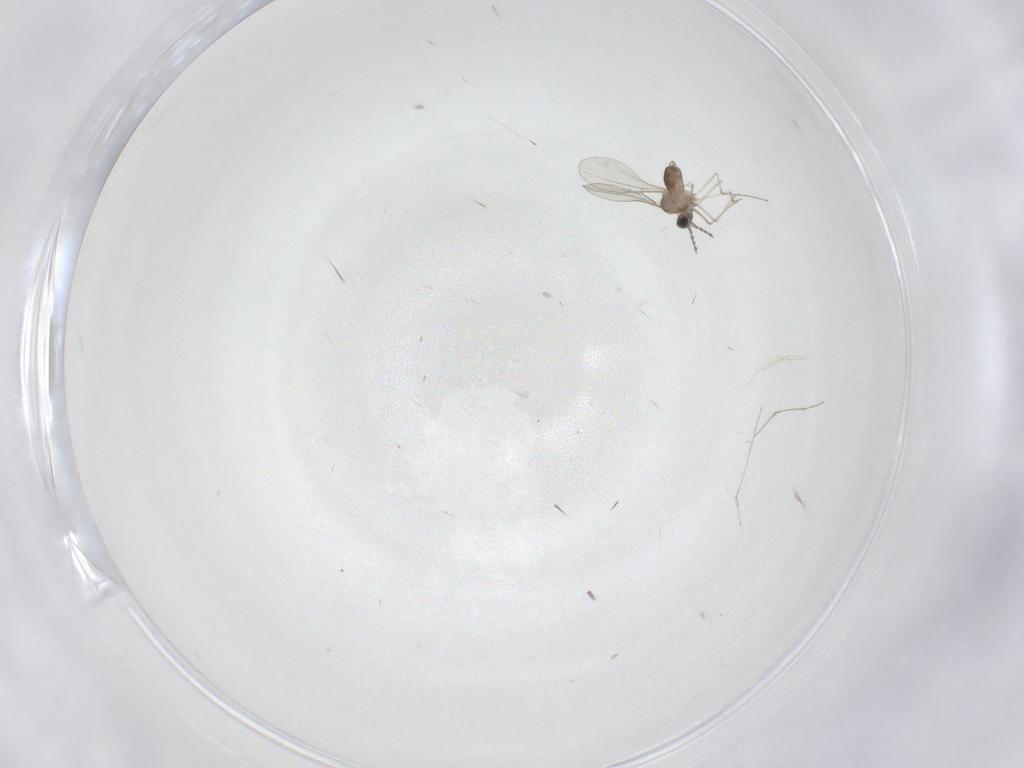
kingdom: Animalia
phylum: Arthropoda
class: Insecta
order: Diptera
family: Cecidomyiidae
